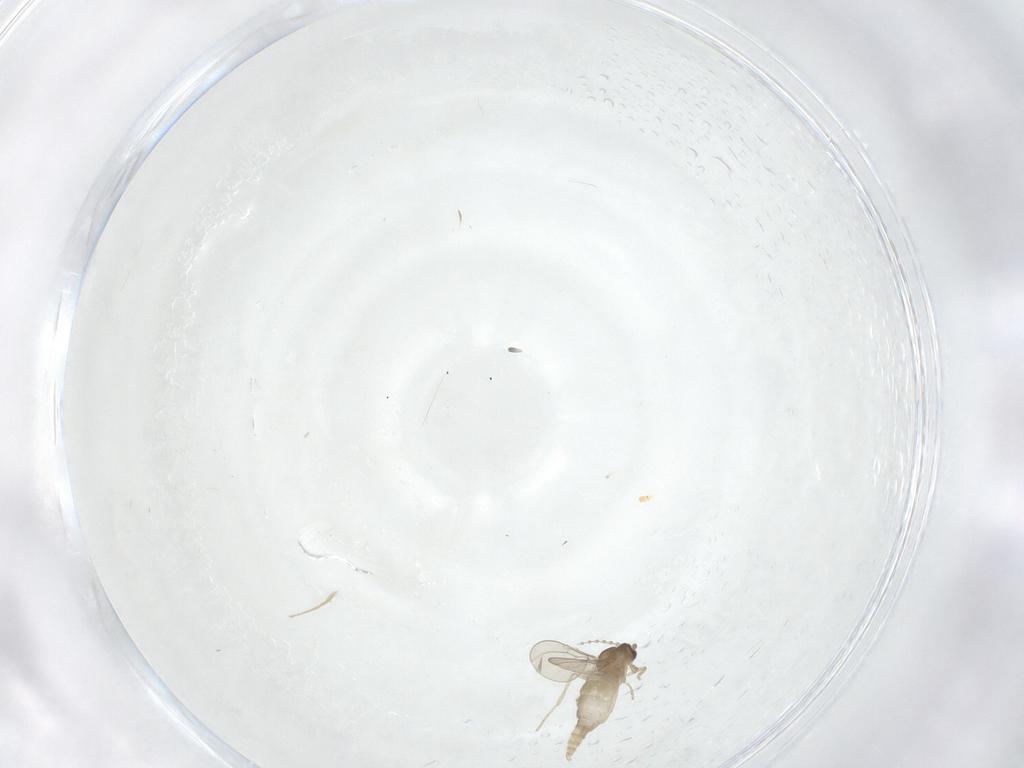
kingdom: Animalia
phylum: Arthropoda
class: Insecta
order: Diptera
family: Cecidomyiidae
